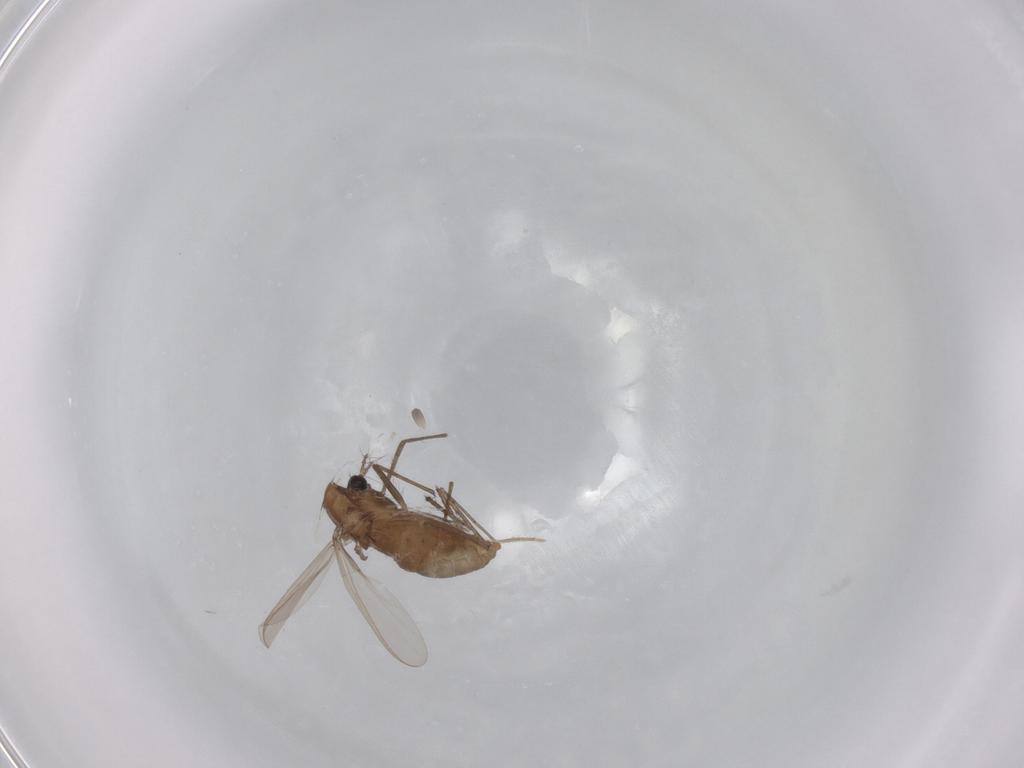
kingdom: Animalia
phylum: Arthropoda
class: Insecta
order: Diptera
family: Chironomidae
